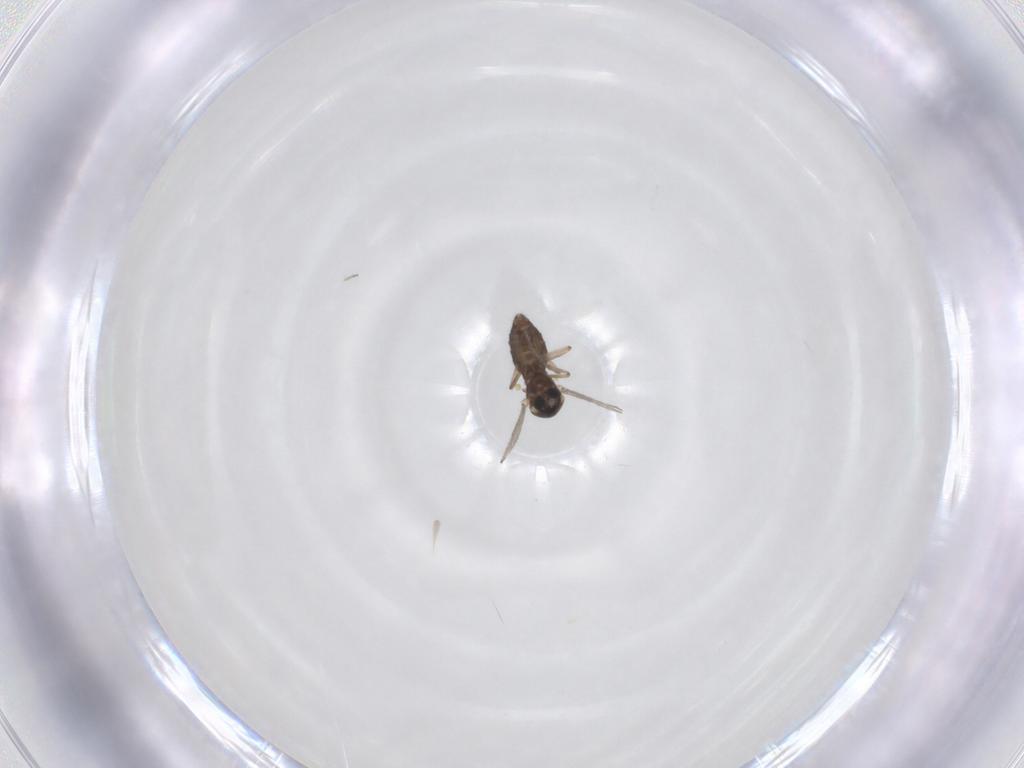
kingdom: Animalia
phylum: Arthropoda
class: Insecta
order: Diptera
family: Ceratopogonidae
